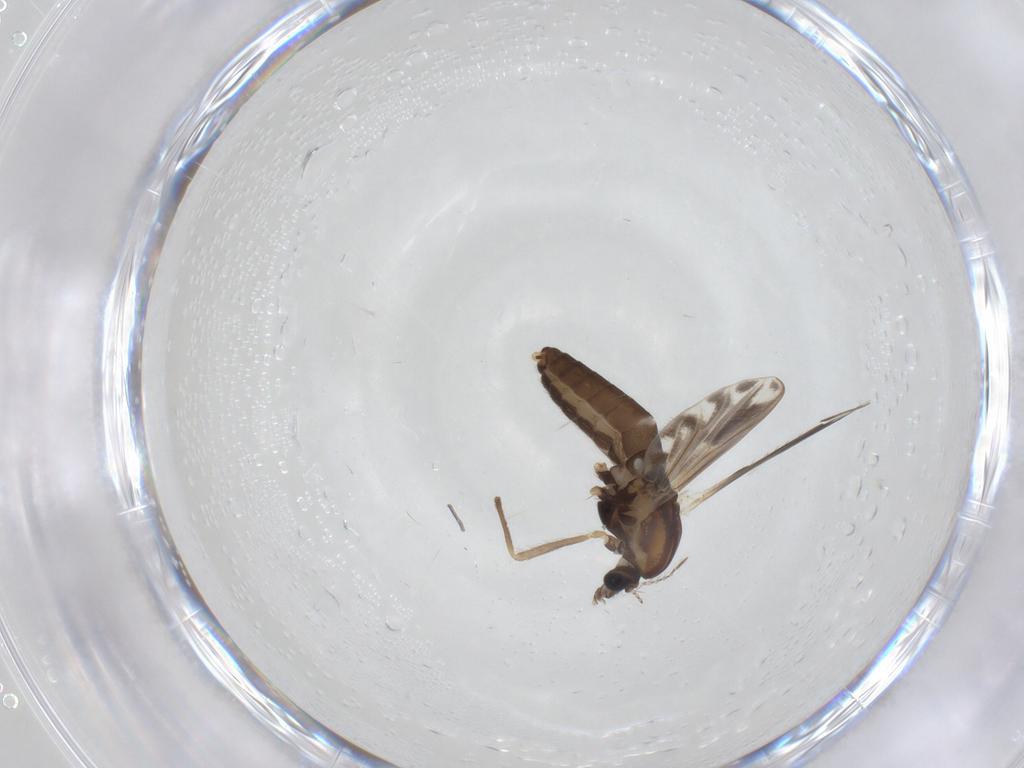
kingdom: Animalia
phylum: Arthropoda
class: Insecta
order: Diptera
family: Chironomidae
